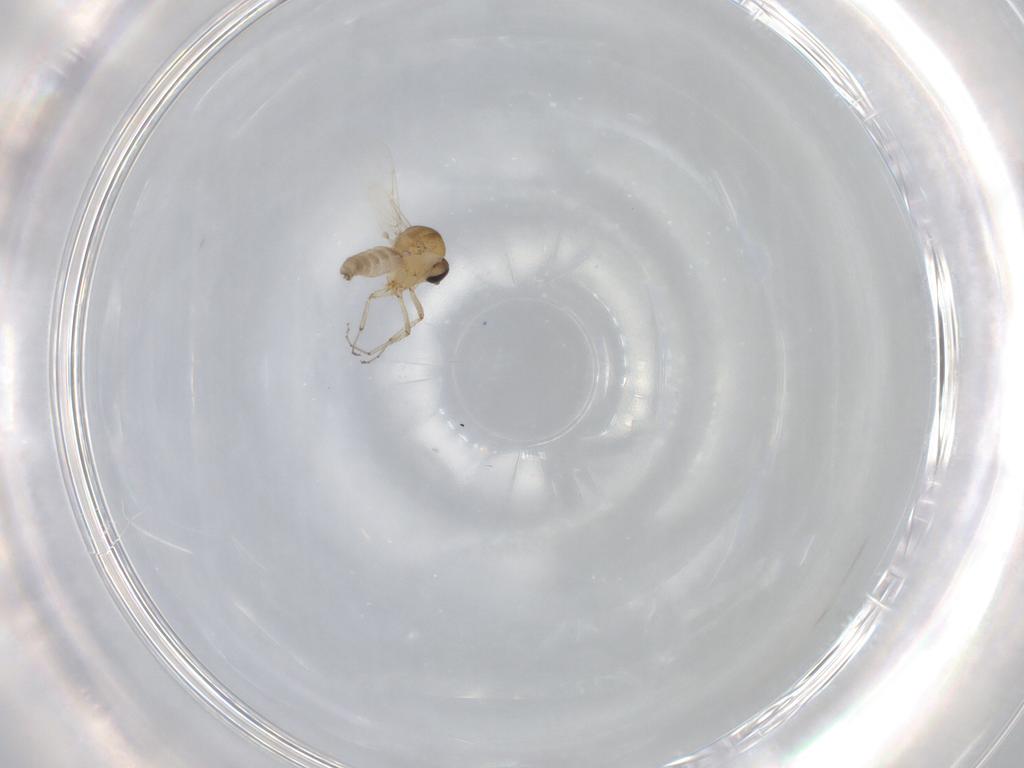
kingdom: Animalia
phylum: Arthropoda
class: Insecta
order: Diptera
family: Ceratopogonidae
